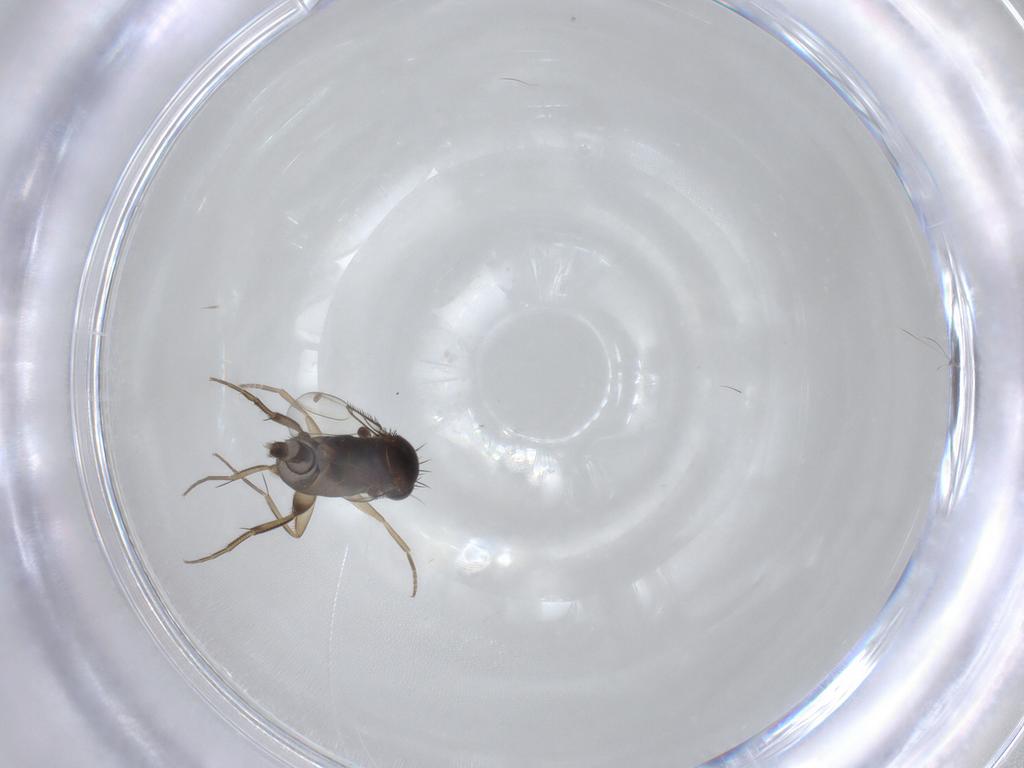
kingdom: Animalia
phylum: Arthropoda
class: Insecta
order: Diptera
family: Phoridae
